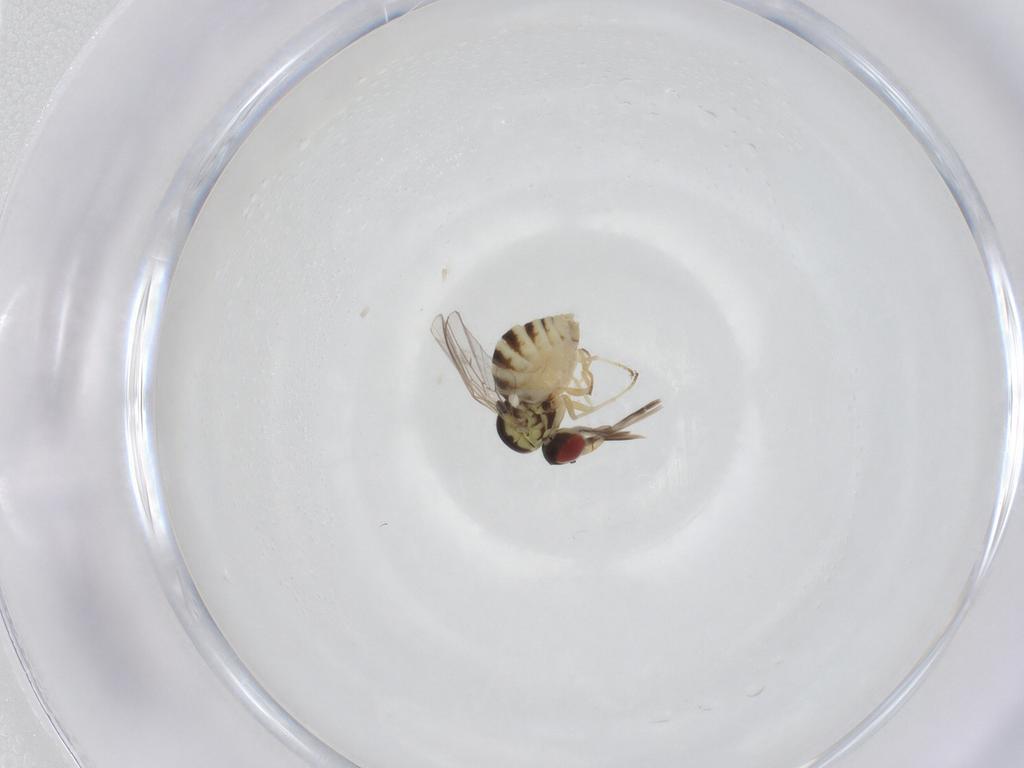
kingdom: Animalia
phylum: Arthropoda
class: Insecta
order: Diptera
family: Bombyliidae
